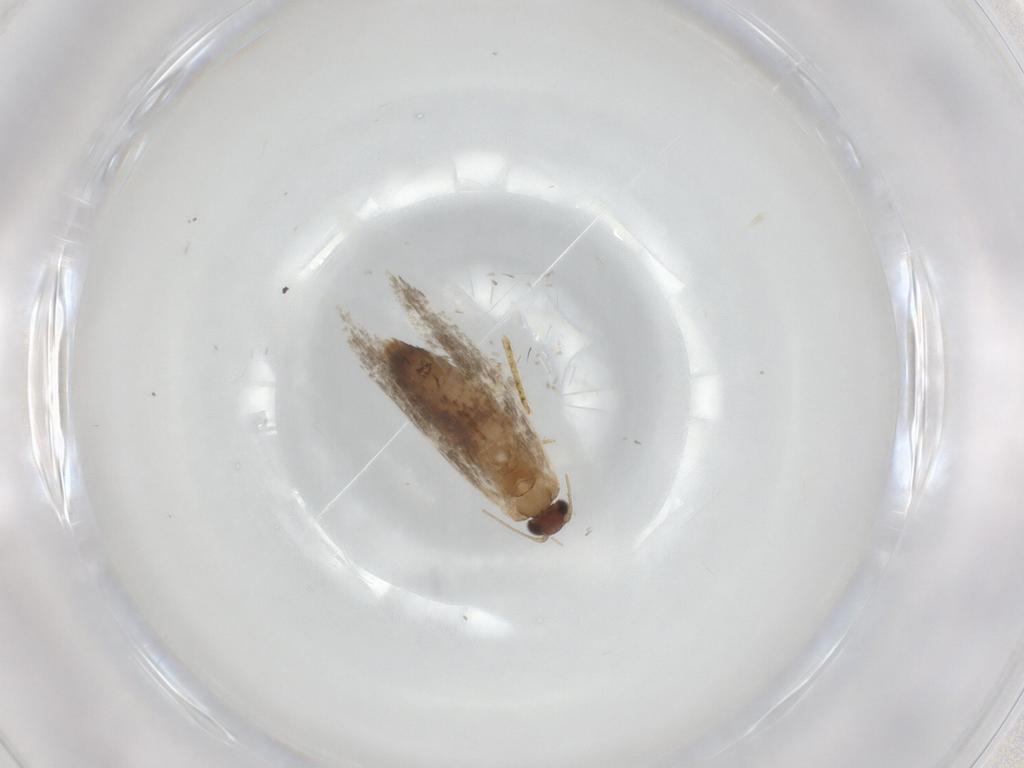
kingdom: Animalia
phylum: Arthropoda
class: Insecta
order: Lepidoptera
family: Tineidae
